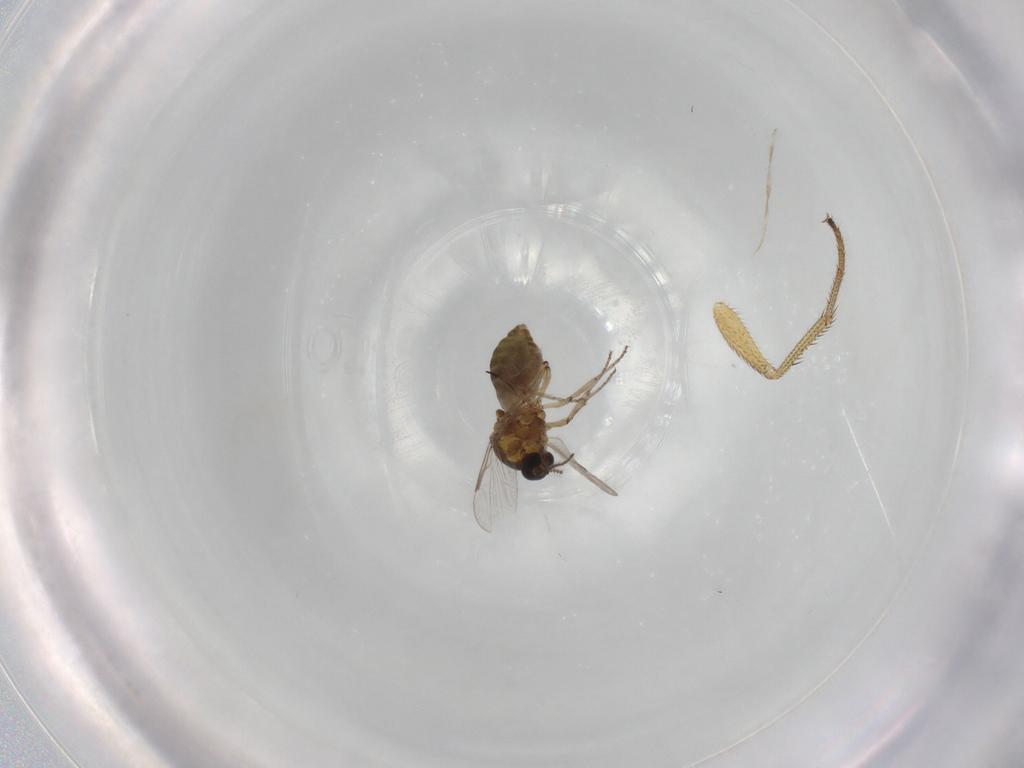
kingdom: Animalia
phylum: Arthropoda
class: Insecta
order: Diptera
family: Ceratopogonidae
